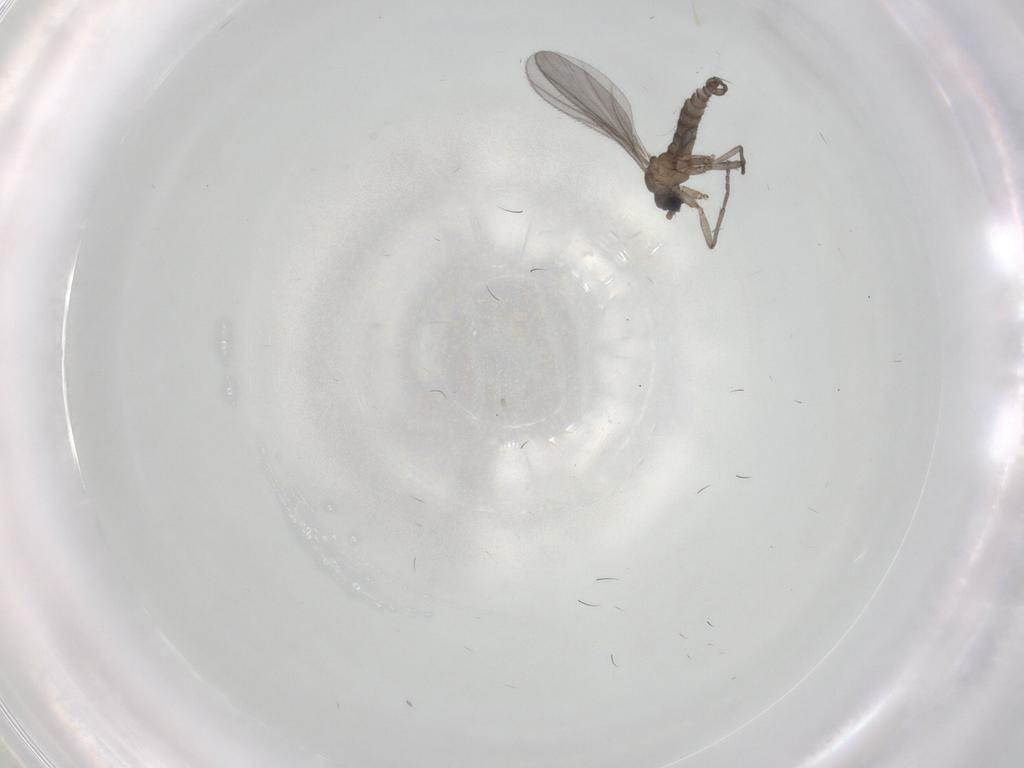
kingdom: Animalia
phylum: Arthropoda
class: Insecta
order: Diptera
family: Sciaridae
